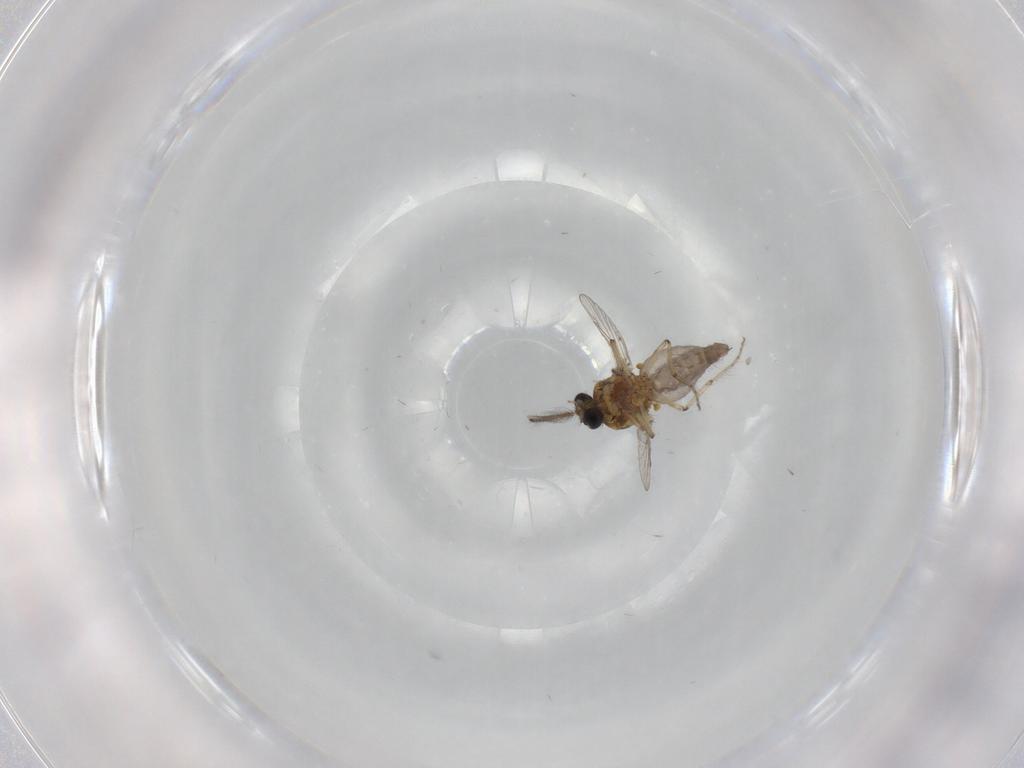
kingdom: Animalia
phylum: Arthropoda
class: Insecta
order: Diptera
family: Ceratopogonidae
